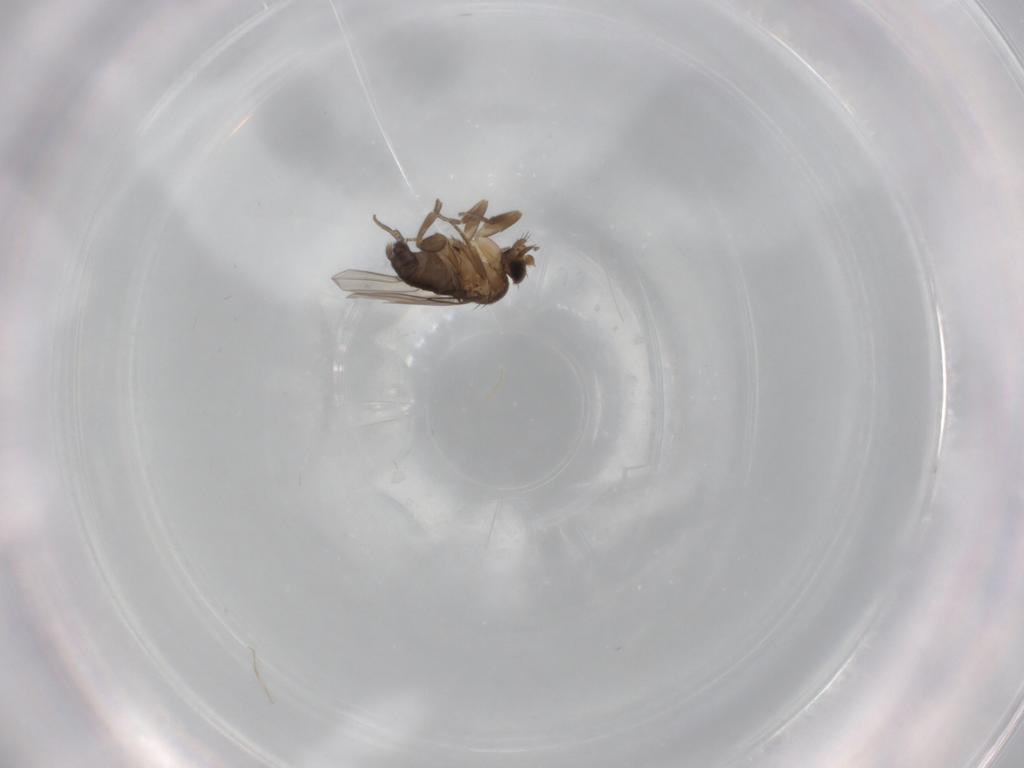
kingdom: Animalia
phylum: Arthropoda
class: Insecta
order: Diptera
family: Phoridae
